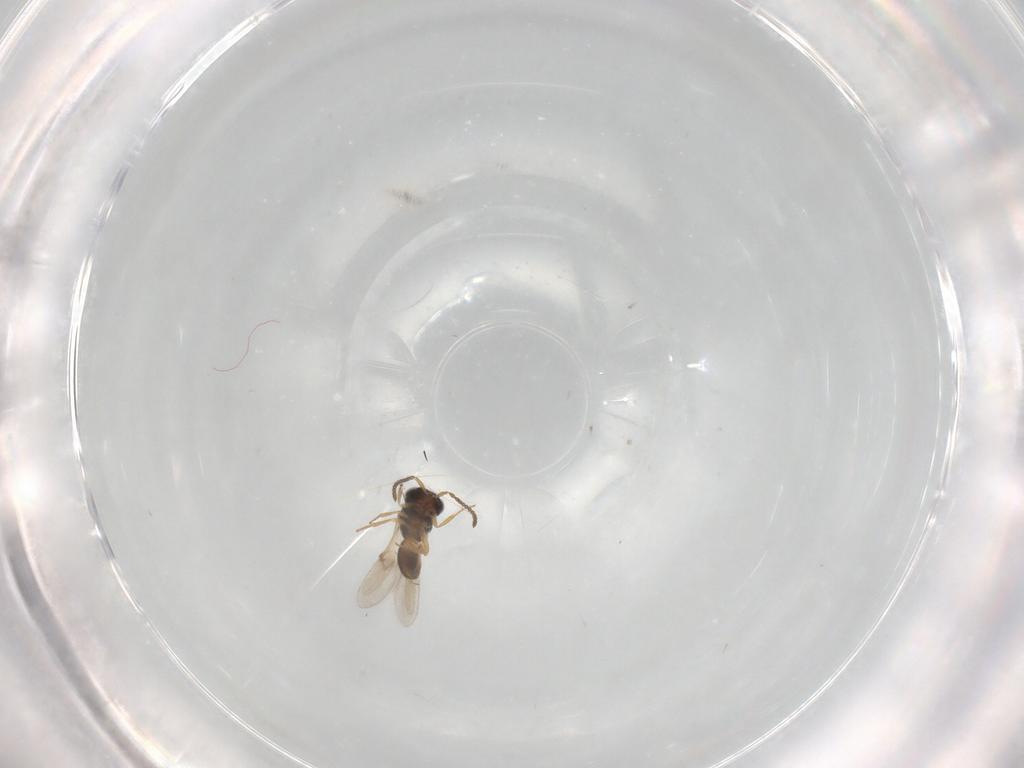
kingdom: Animalia
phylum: Arthropoda
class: Insecta
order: Hymenoptera
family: Scelionidae
